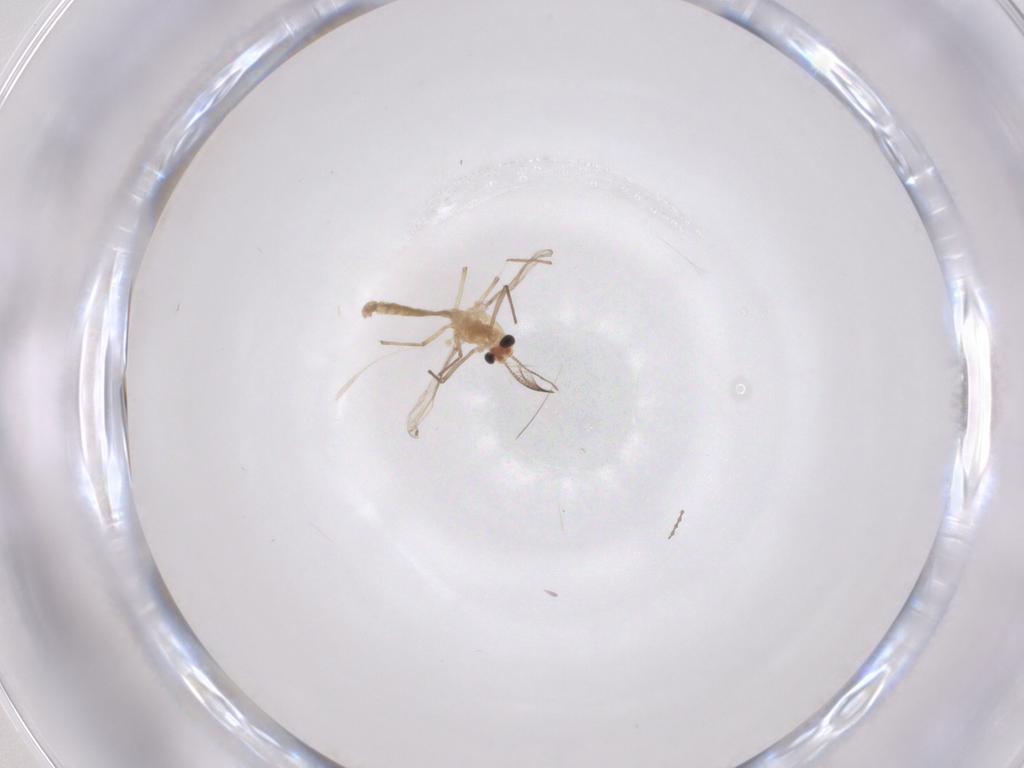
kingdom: Animalia
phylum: Arthropoda
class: Insecta
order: Diptera
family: Chironomidae
